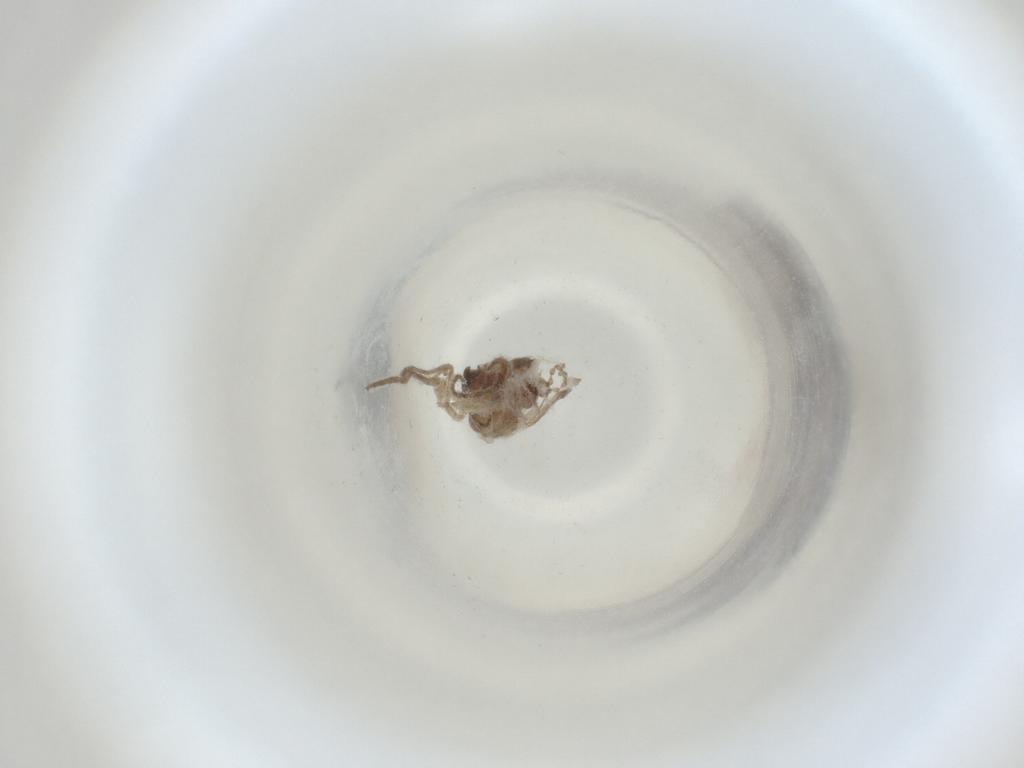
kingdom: Animalia
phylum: Arthropoda
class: Insecta
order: Diptera
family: Cecidomyiidae
